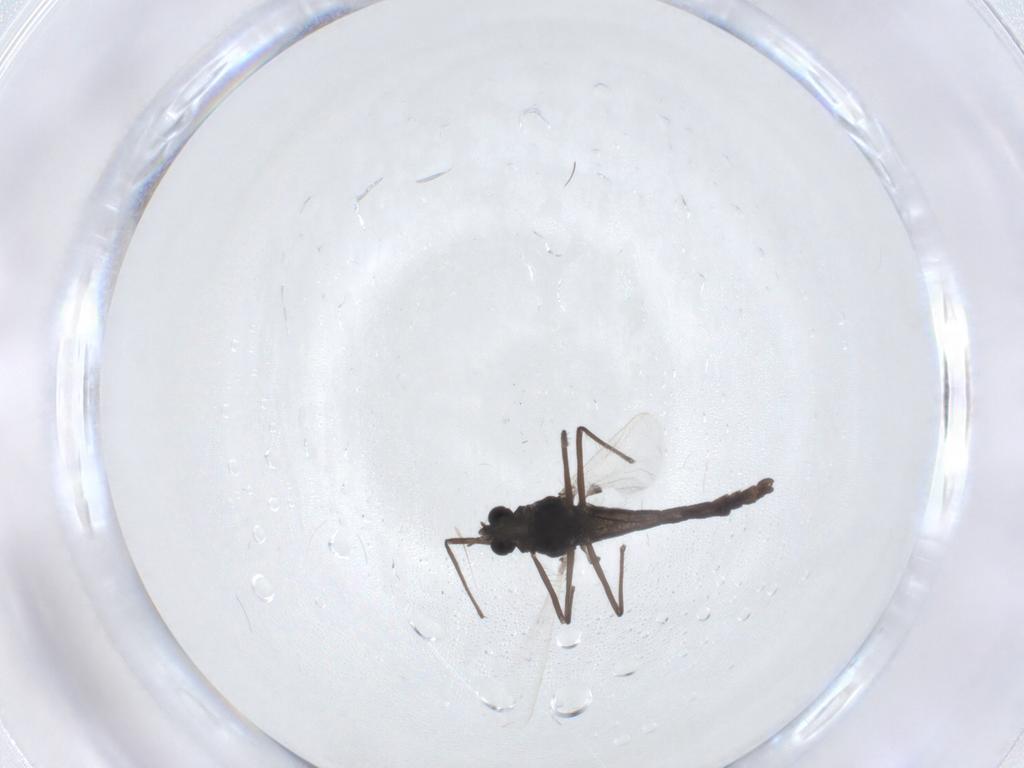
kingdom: Animalia
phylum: Arthropoda
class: Insecta
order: Diptera
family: Chironomidae
